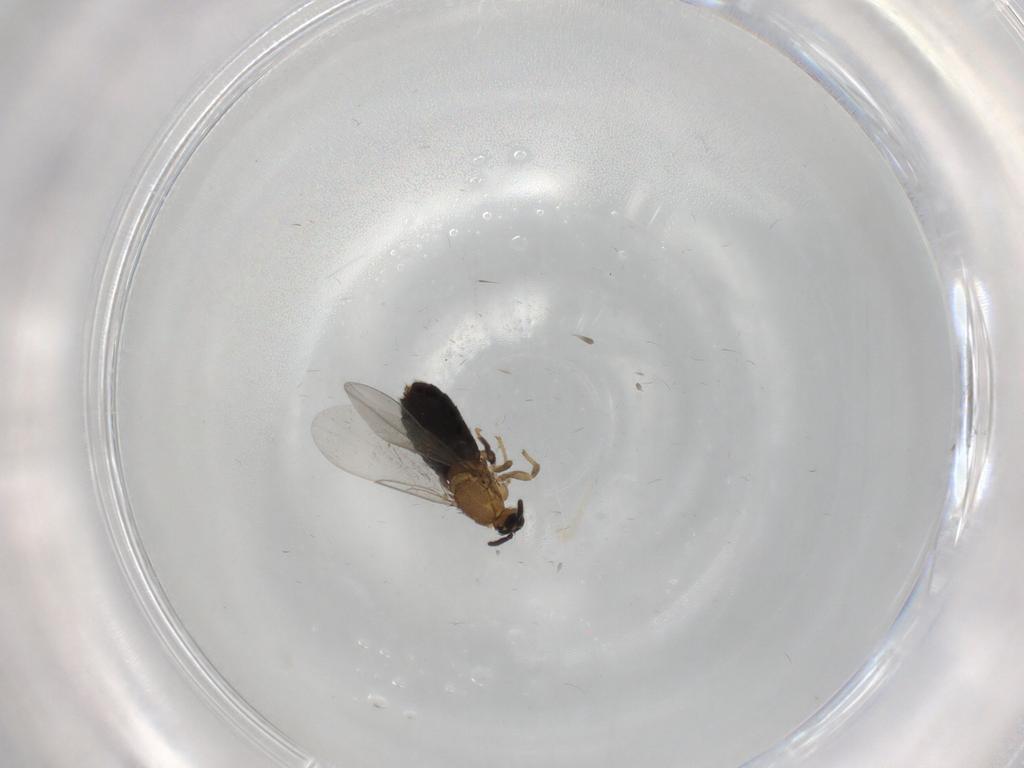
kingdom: Animalia
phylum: Arthropoda
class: Insecta
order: Diptera
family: Scatopsidae
